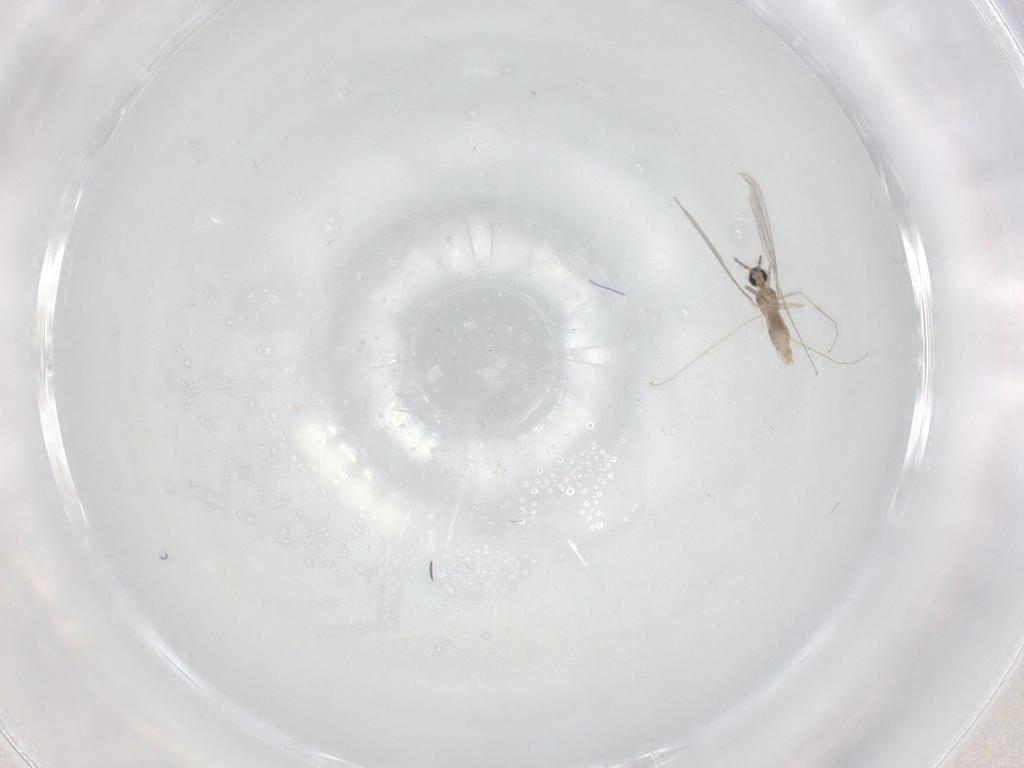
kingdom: Animalia
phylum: Arthropoda
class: Insecta
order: Diptera
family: Cecidomyiidae
